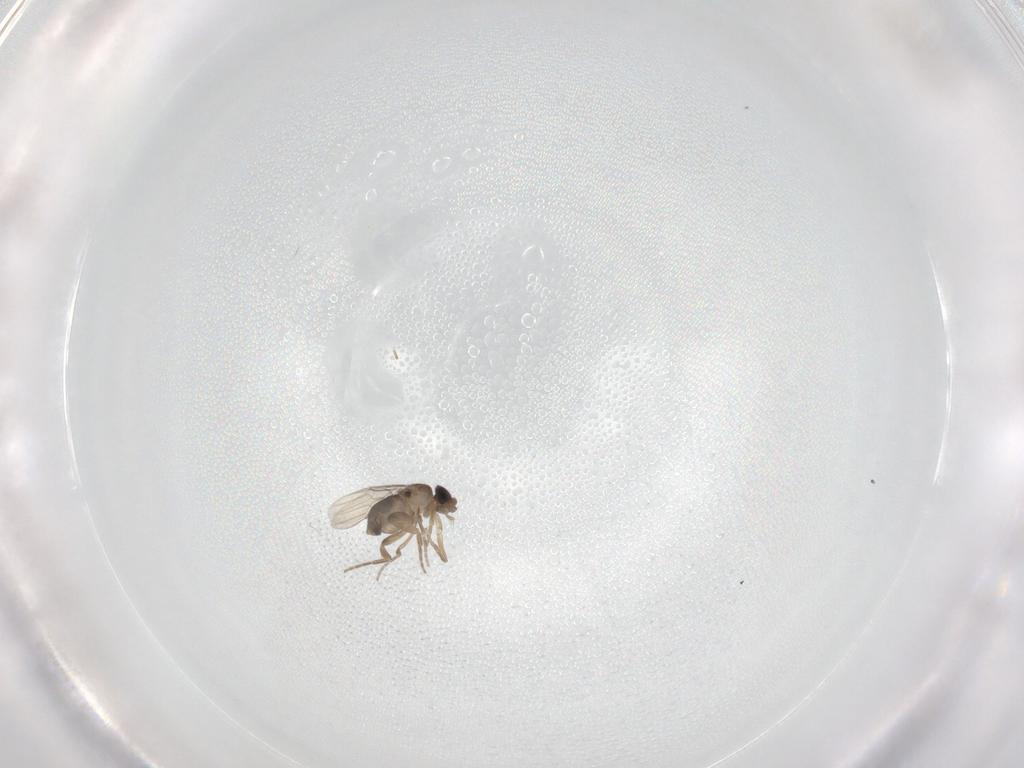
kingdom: Animalia
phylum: Arthropoda
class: Insecta
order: Diptera
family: Phoridae
